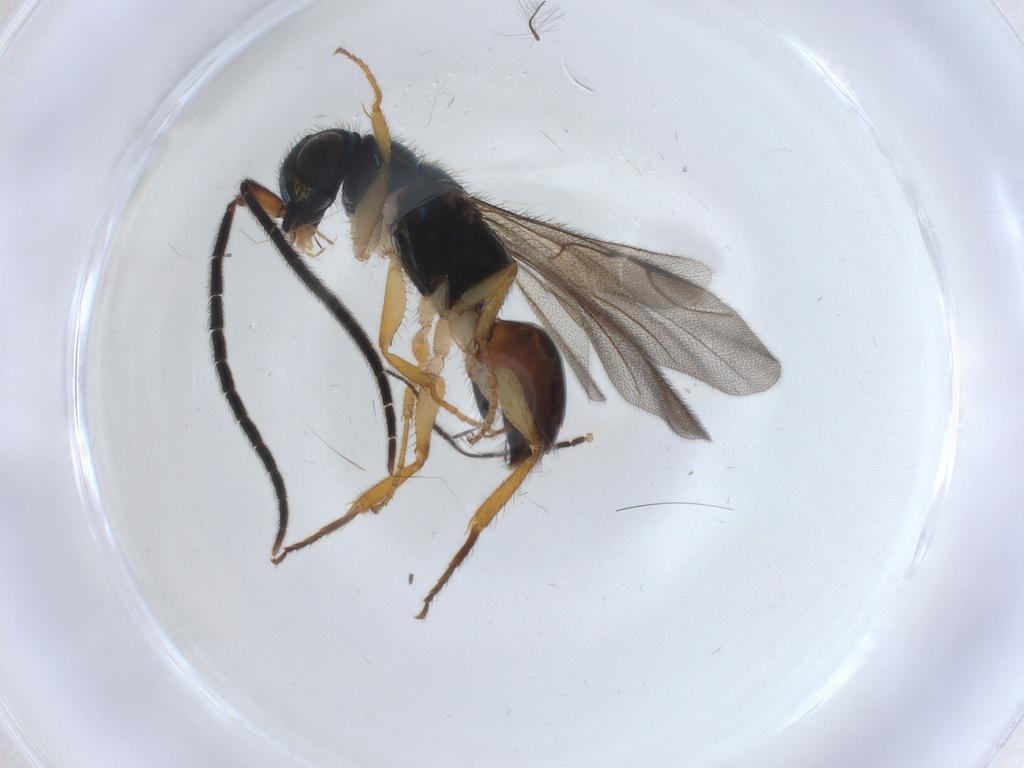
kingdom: Animalia
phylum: Arthropoda
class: Insecta
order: Hymenoptera
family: Chrysididae
